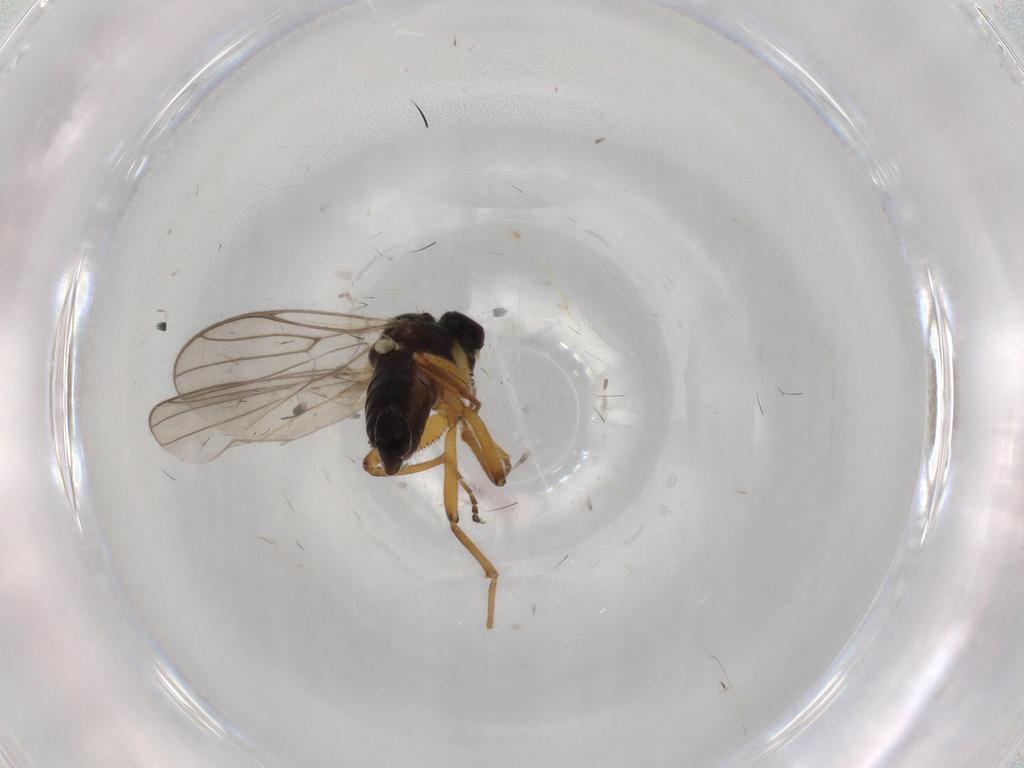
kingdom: Animalia
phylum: Arthropoda
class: Insecta
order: Diptera
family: Hybotidae
